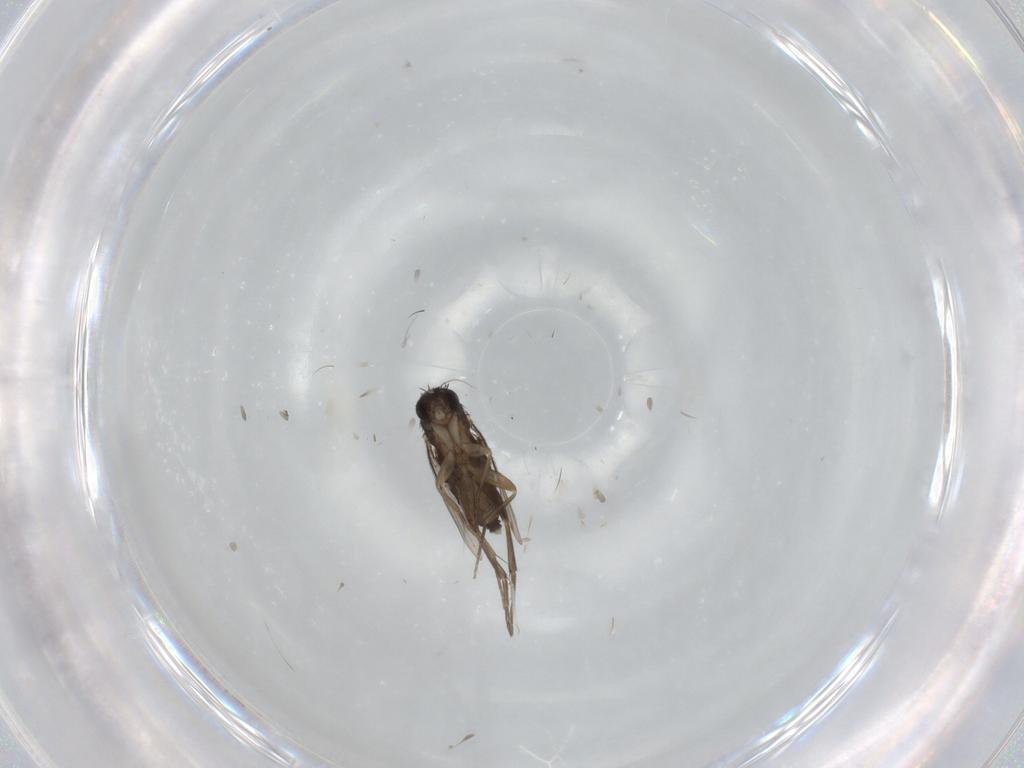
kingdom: Animalia
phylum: Arthropoda
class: Insecta
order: Diptera
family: Phoridae
